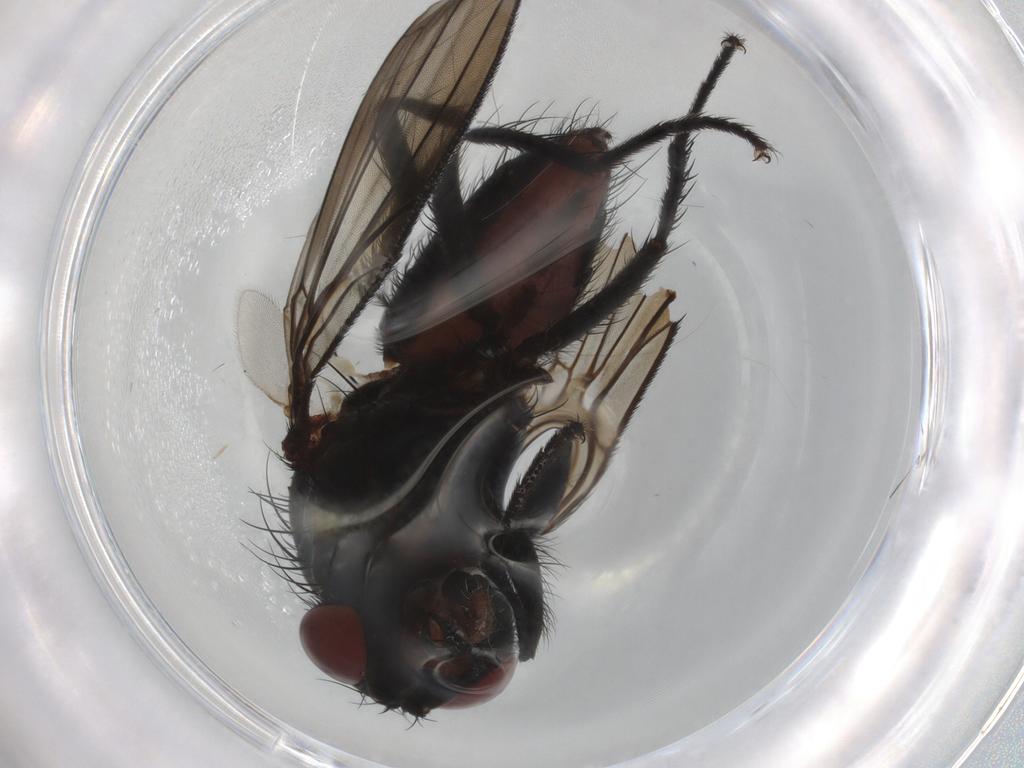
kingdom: Animalia
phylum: Arthropoda
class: Insecta
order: Diptera
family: Anthomyiidae
